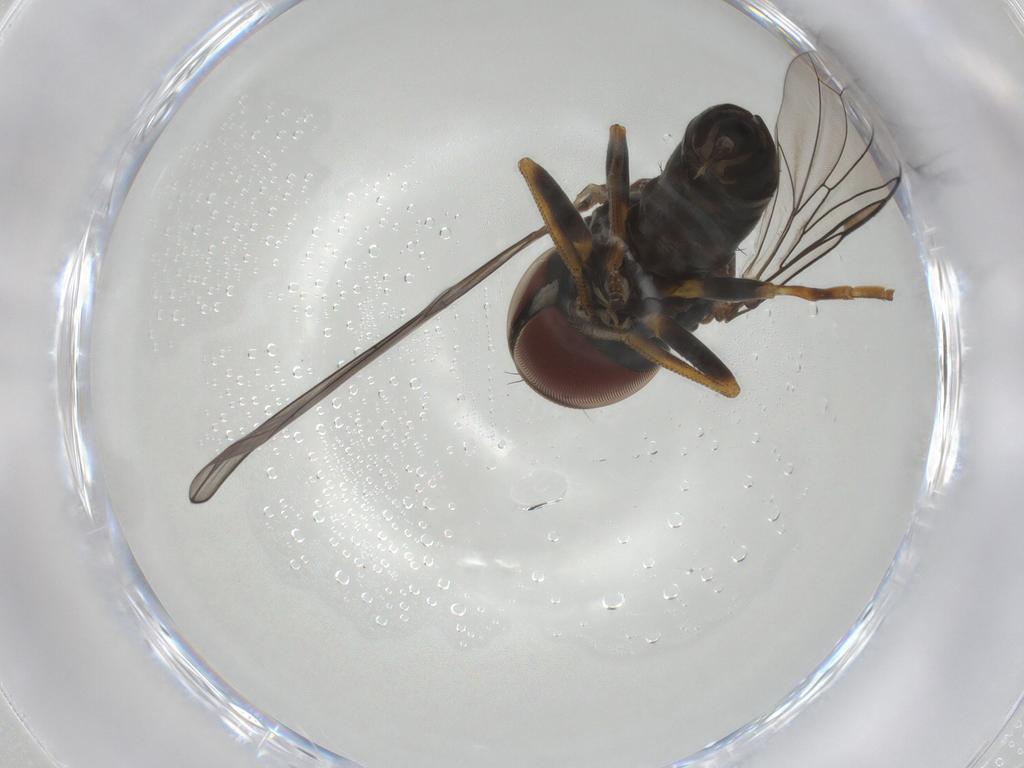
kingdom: Animalia
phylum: Arthropoda
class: Insecta
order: Diptera
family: Pipunculidae
